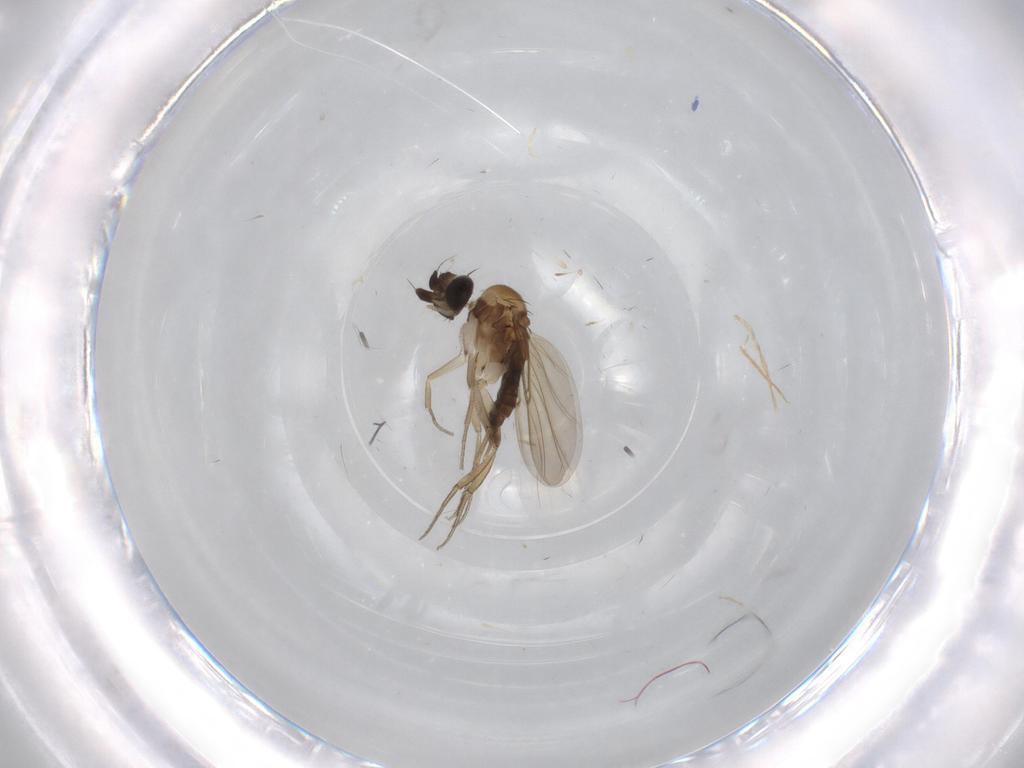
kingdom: Animalia
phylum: Arthropoda
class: Insecta
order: Diptera
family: Phoridae
